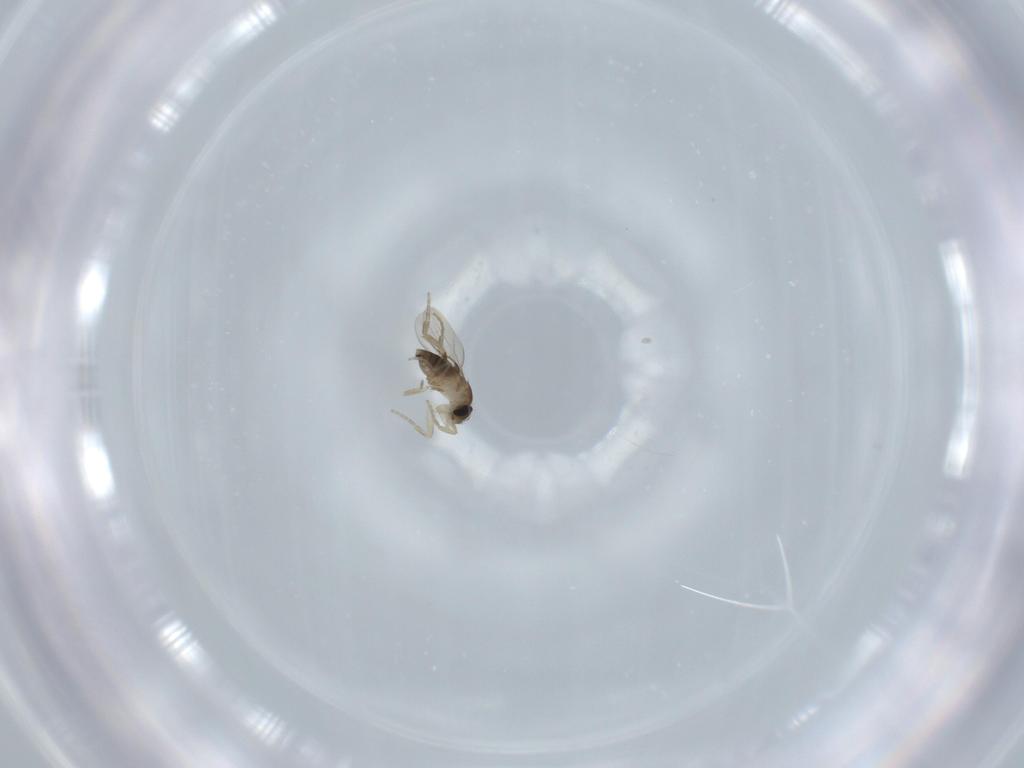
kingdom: Animalia
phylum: Arthropoda
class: Insecta
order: Diptera
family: Phoridae
